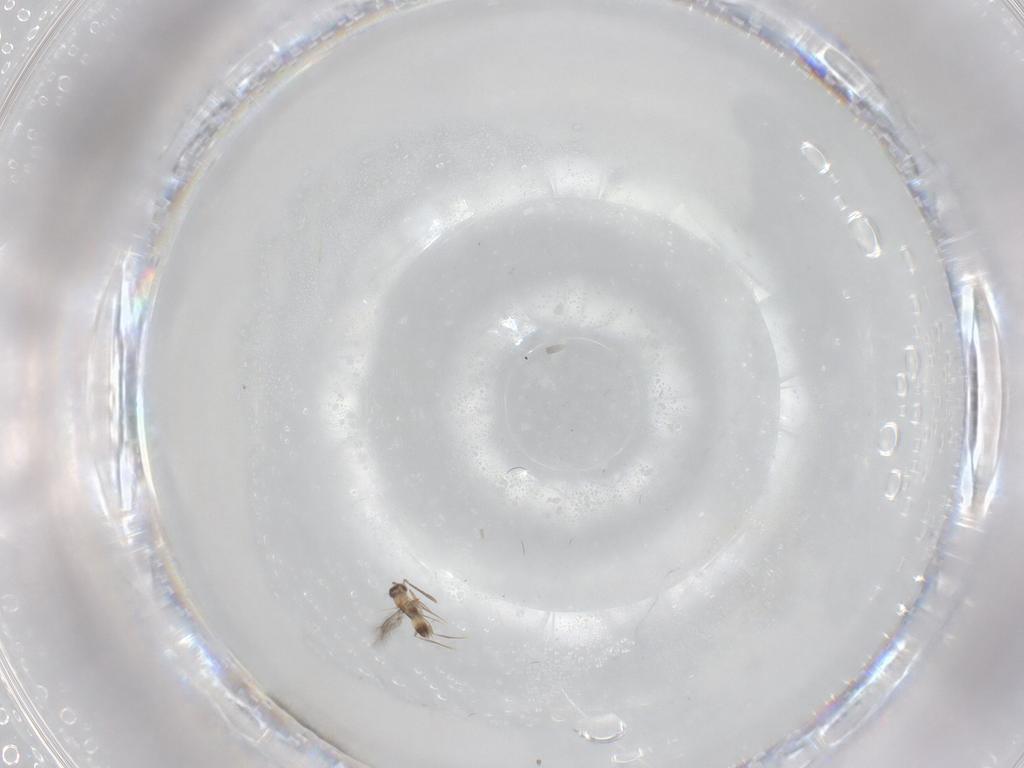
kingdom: Animalia
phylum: Arthropoda
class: Insecta
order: Hymenoptera
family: Mymaridae
